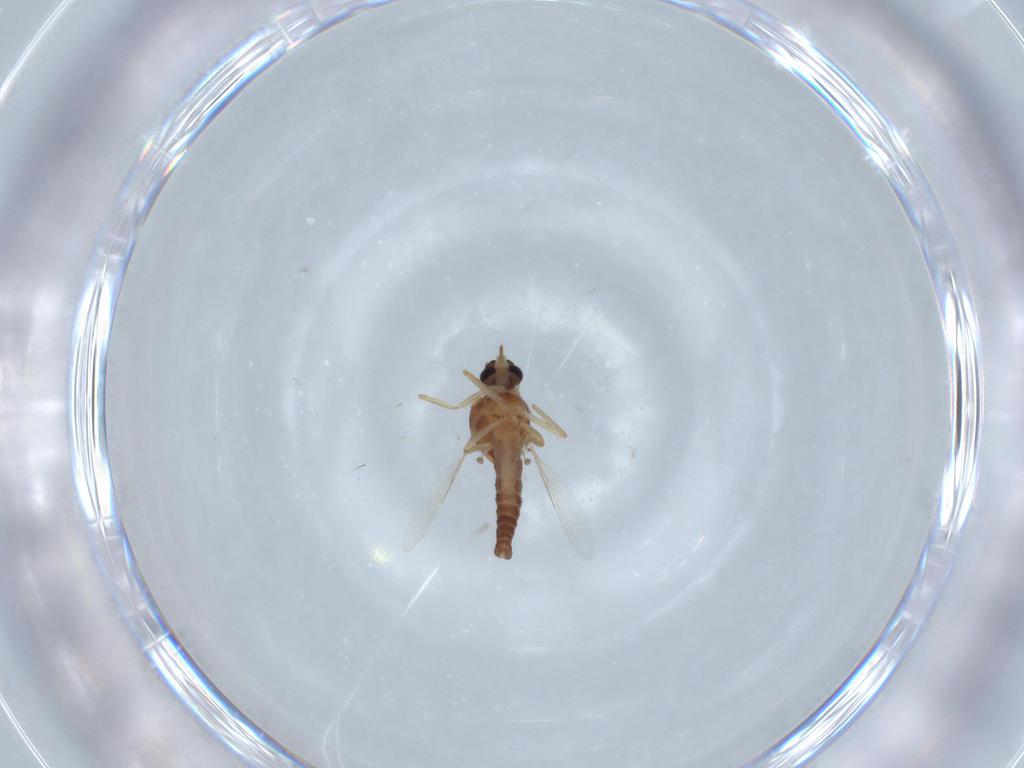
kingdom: Animalia
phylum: Arthropoda
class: Insecta
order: Diptera
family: Ceratopogonidae
